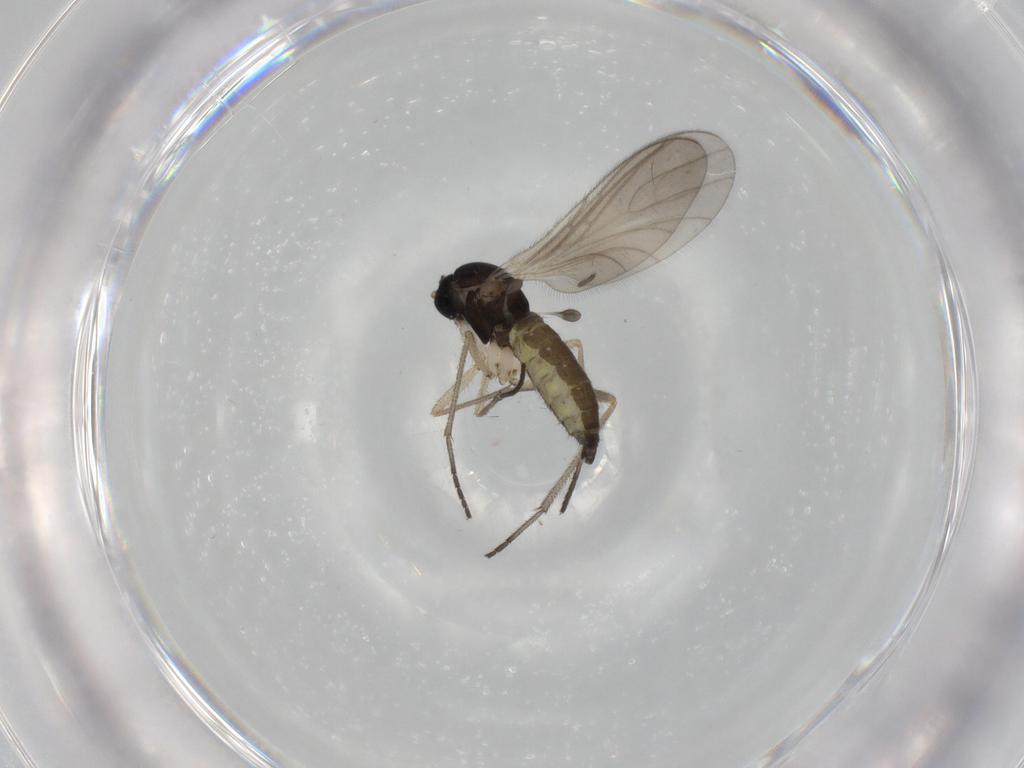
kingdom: Animalia
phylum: Arthropoda
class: Insecta
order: Diptera
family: Sciaridae
